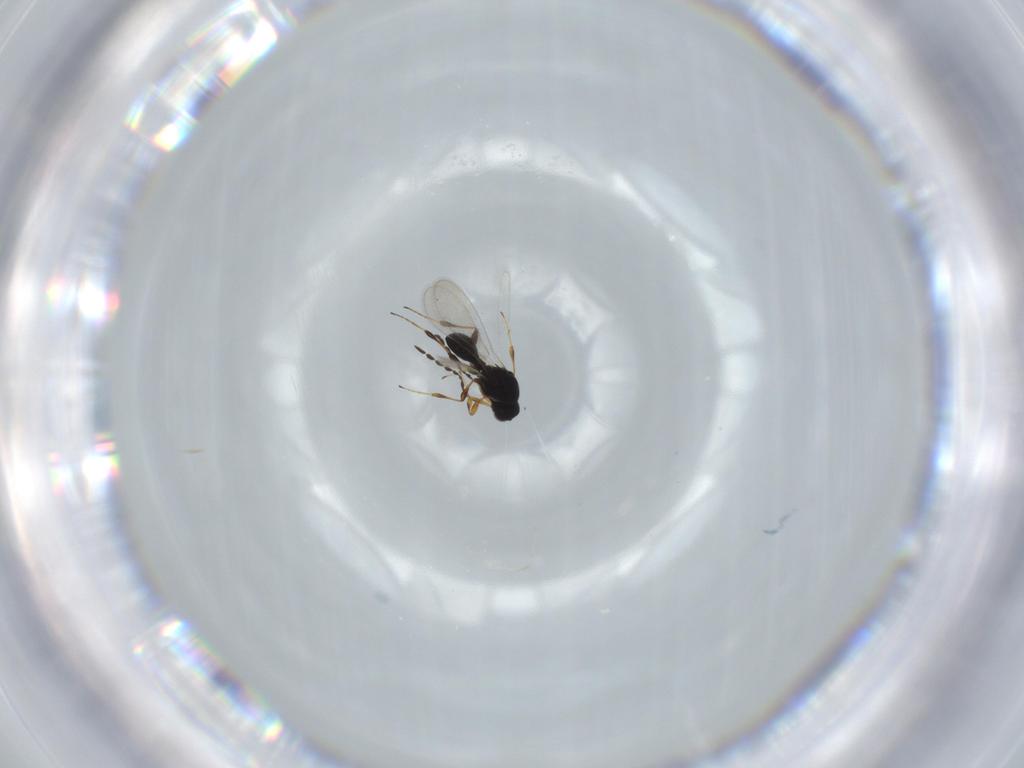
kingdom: Animalia
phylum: Arthropoda
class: Insecta
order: Hymenoptera
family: Platygastridae
